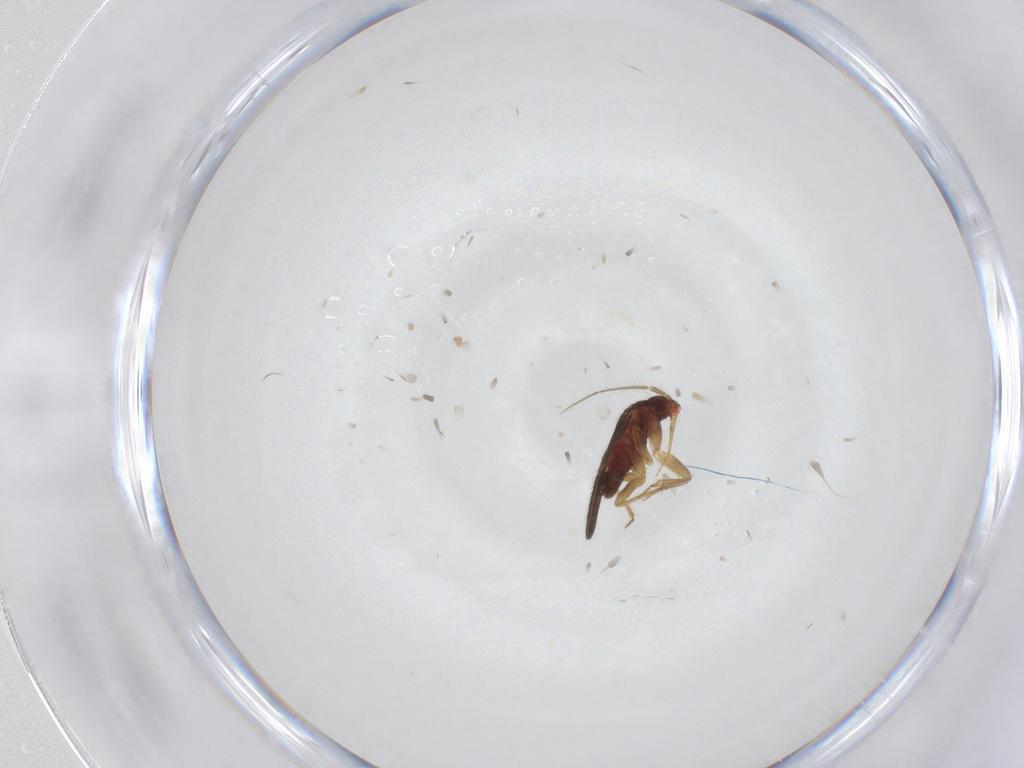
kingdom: Animalia
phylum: Arthropoda
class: Insecta
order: Hemiptera
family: Ceratocombidae
